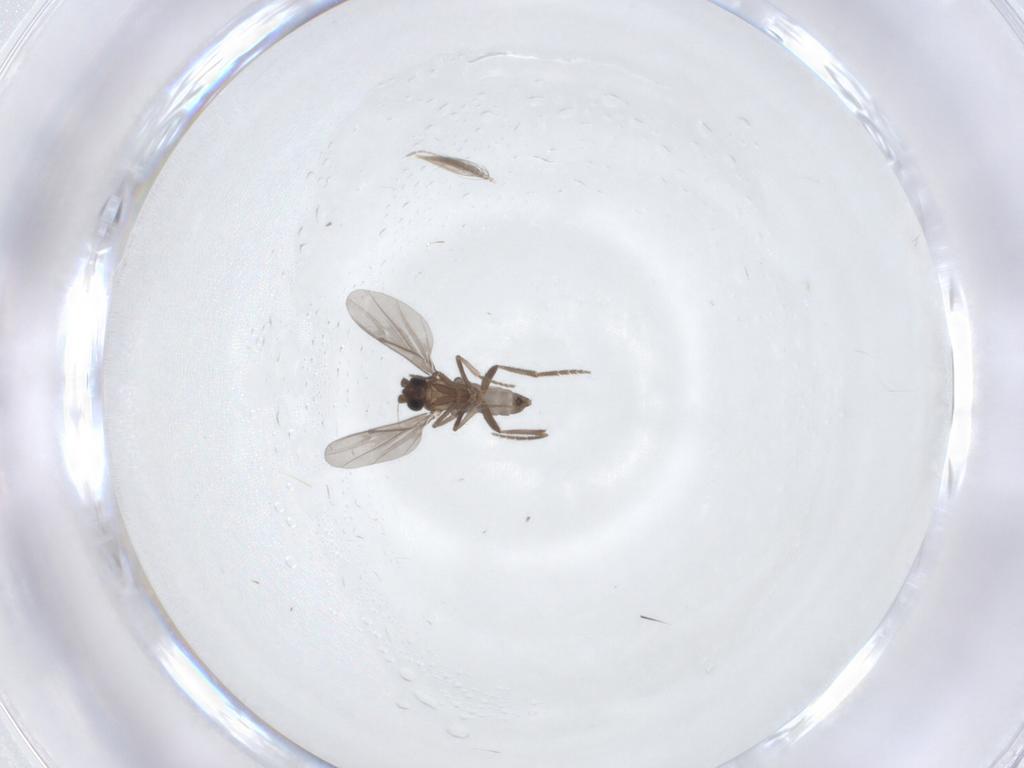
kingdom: Animalia
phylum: Arthropoda
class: Insecta
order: Diptera
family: Phoridae
